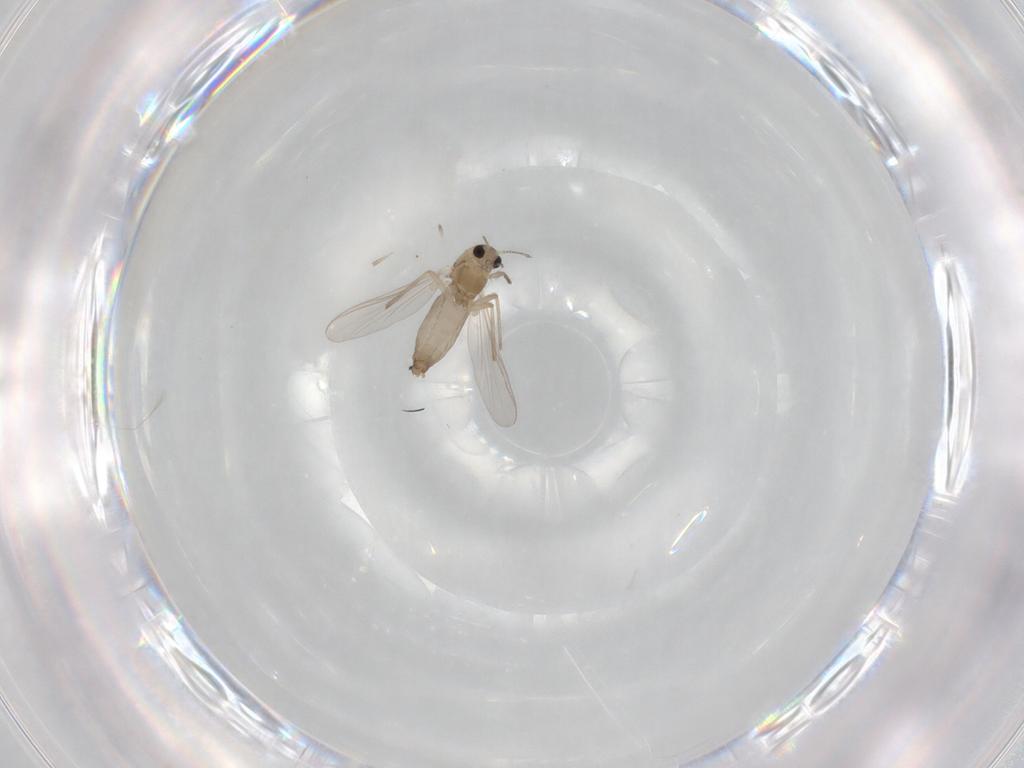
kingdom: Animalia
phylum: Arthropoda
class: Insecta
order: Diptera
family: Chironomidae
